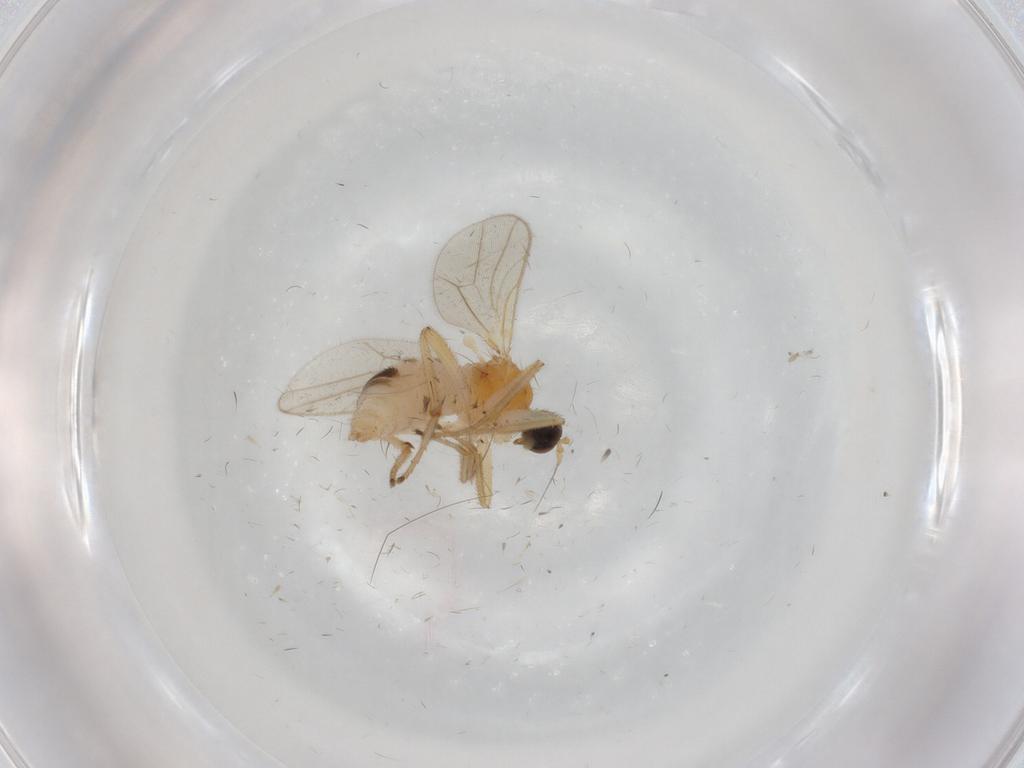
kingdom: Animalia
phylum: Arthropoda
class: Insecta
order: Diptera
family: Hybotidae
